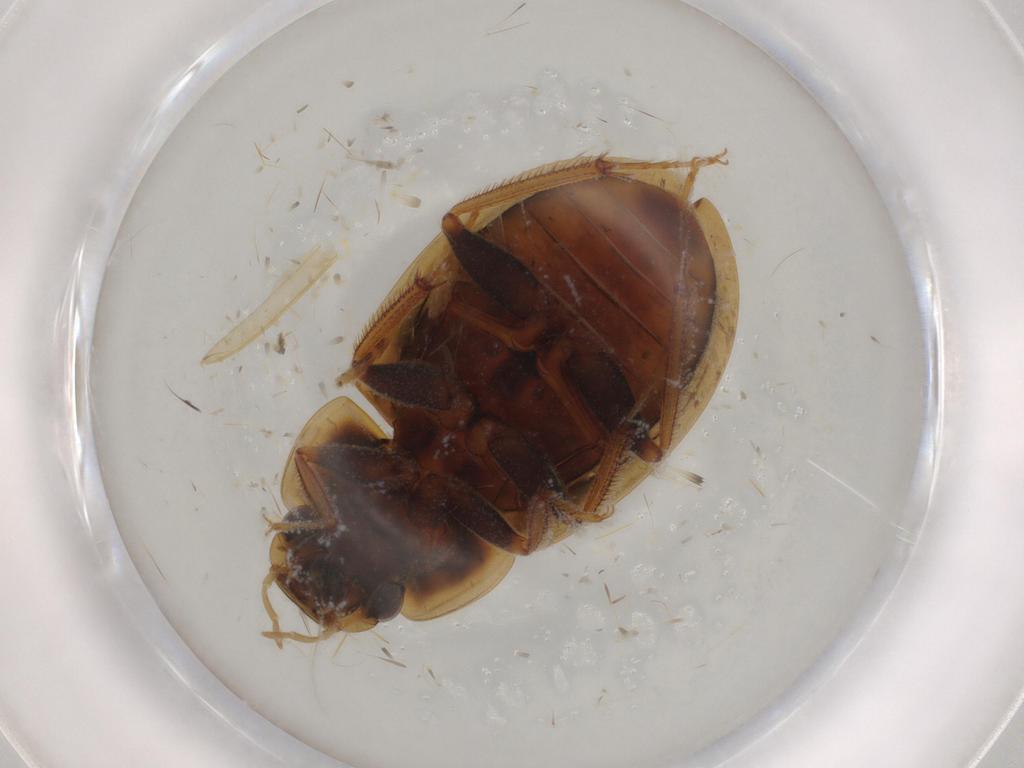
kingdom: Animalia
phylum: Arthropoda
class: Insecta
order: Coleoptera
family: Hydrophilidae
